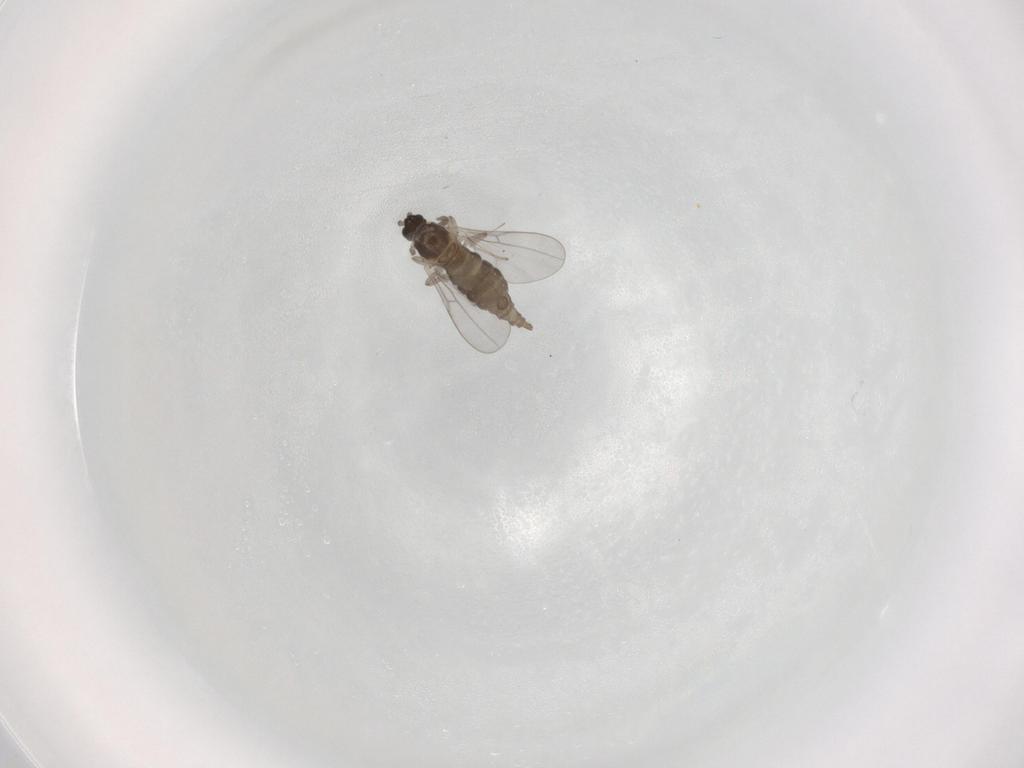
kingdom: Animalia
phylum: Arthropoda
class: Insecta
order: Diptera
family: Cecidomyiidae
